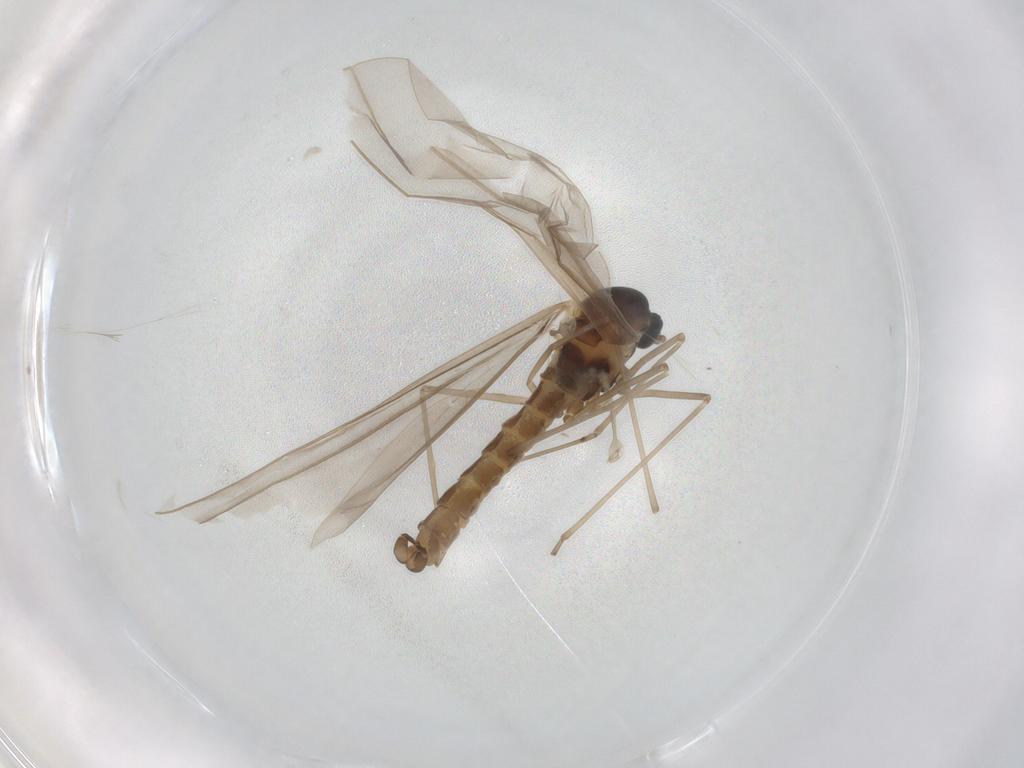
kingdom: Animalia
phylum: Arthropoda
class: Insecta
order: Diptera
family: Cecidomyiidae
